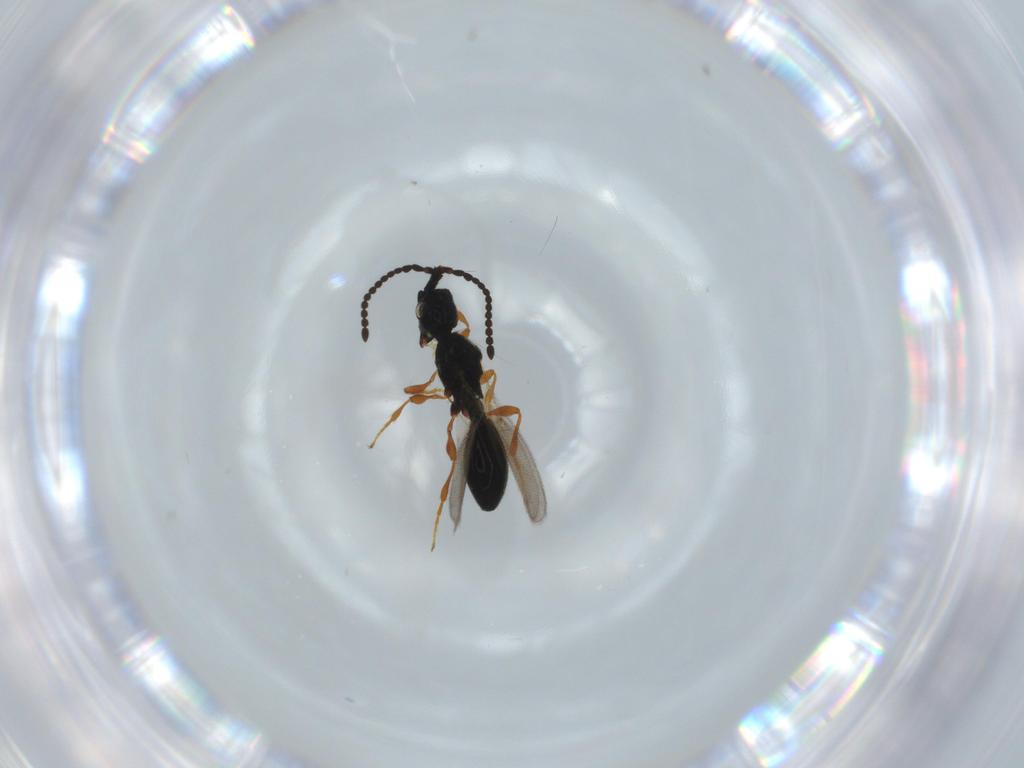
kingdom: Animalia
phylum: Arthropoda
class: Insecta
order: Hymenoptera
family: Diapriidae
